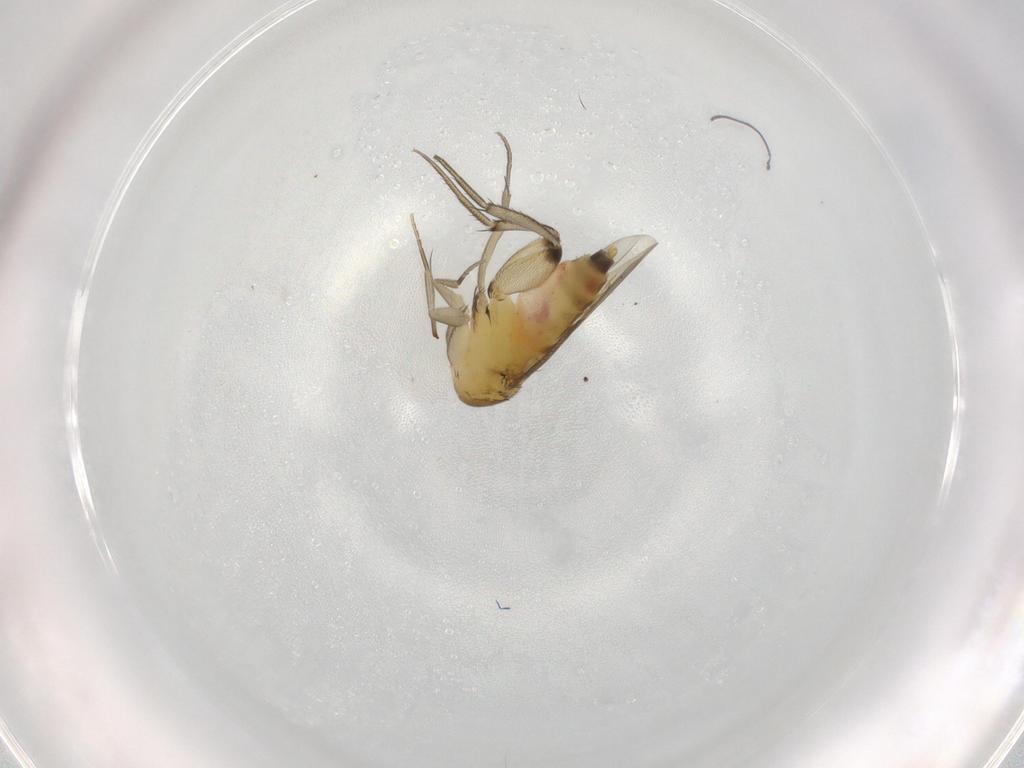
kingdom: Animalia
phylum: Arthropoda
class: Insecta
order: Diptera
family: Phoridae
